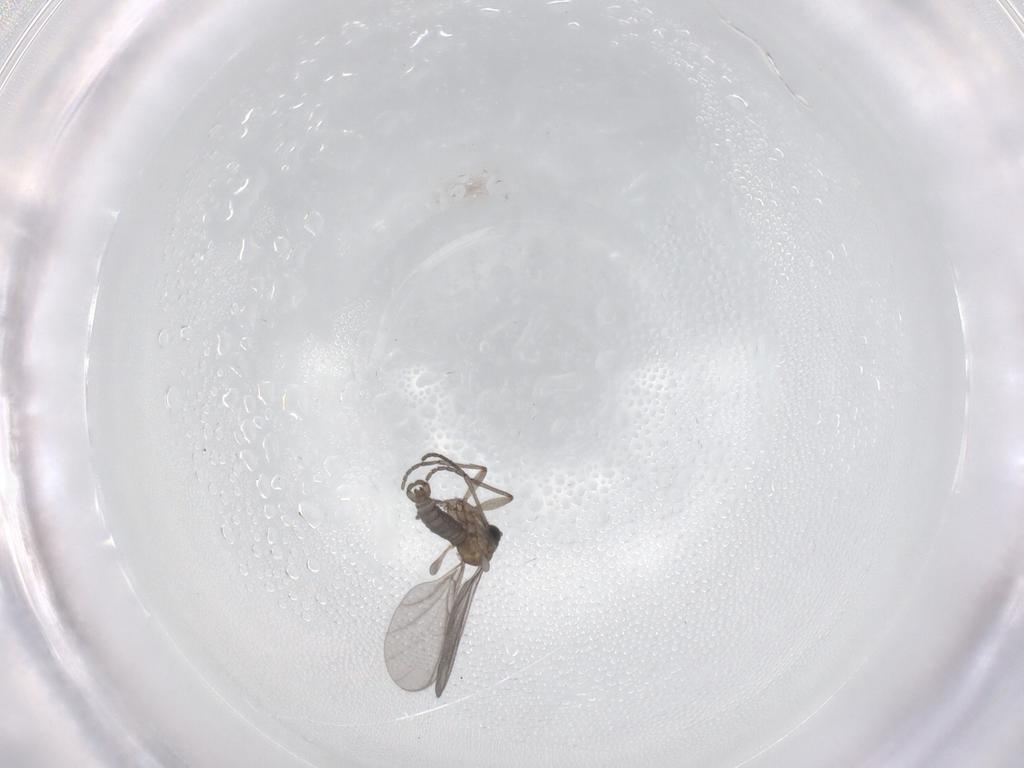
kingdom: Animalia
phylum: Arthropoda
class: Insecta
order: Diptera
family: Sciaridae
